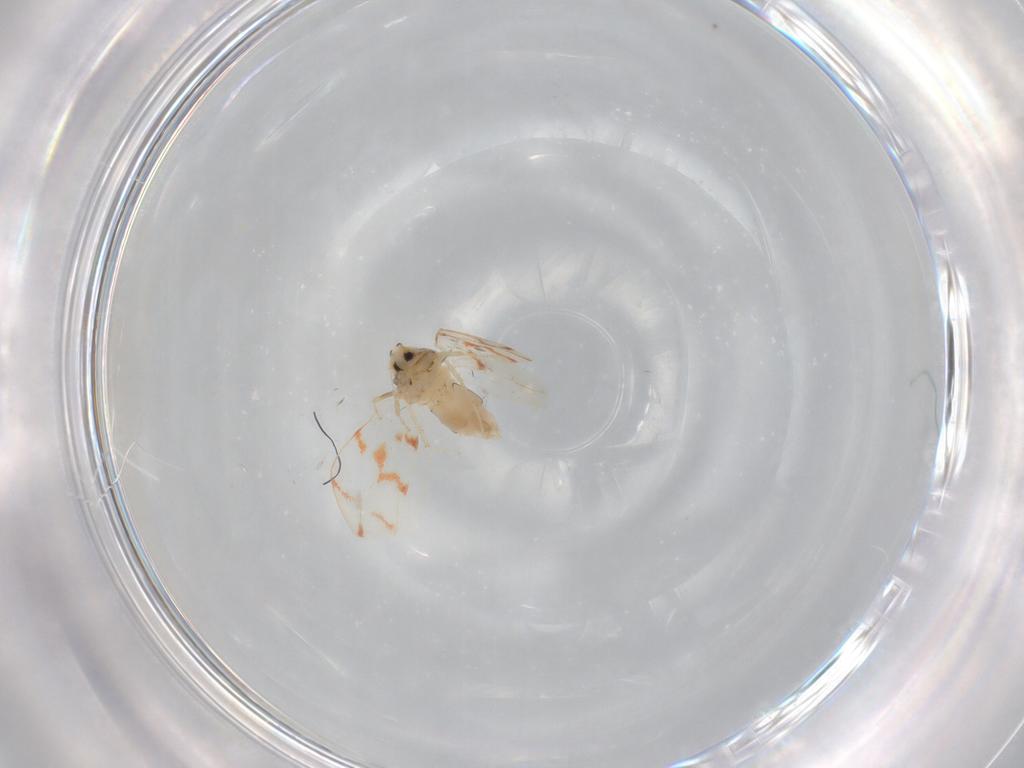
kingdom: Animalia
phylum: Arthropoda
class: Insecta
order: Hemiptera
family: Aleyrodidae
